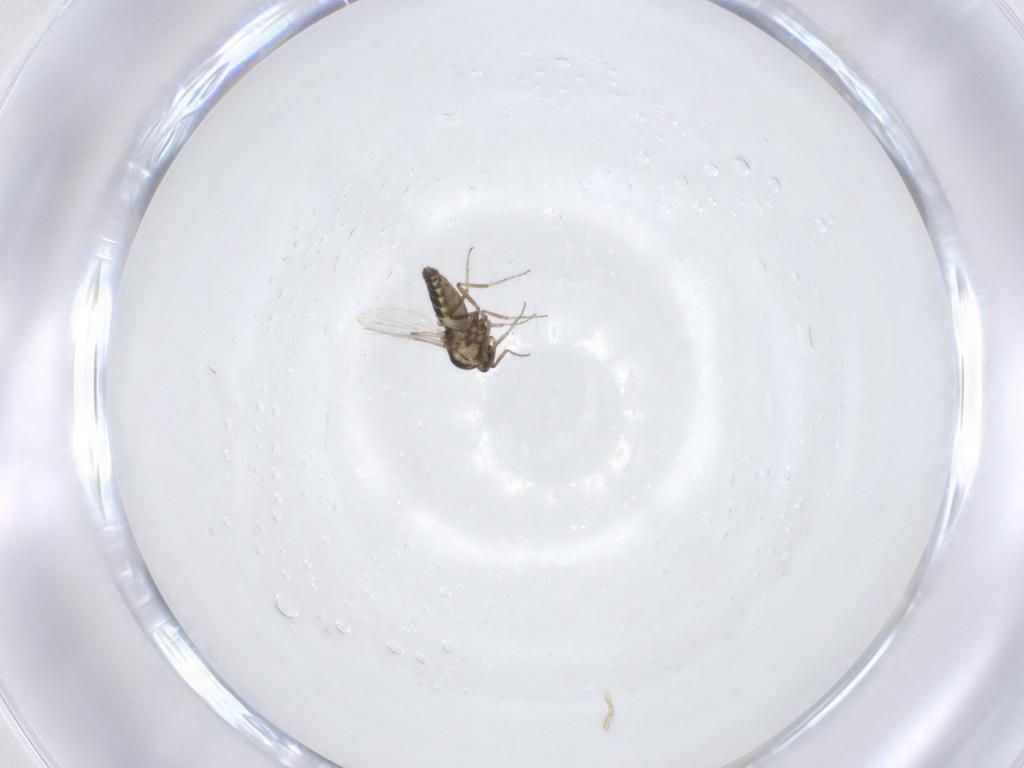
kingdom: Animalia
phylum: Arthropoda
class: Insecta
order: Diptera
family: Ceratopogonidae
